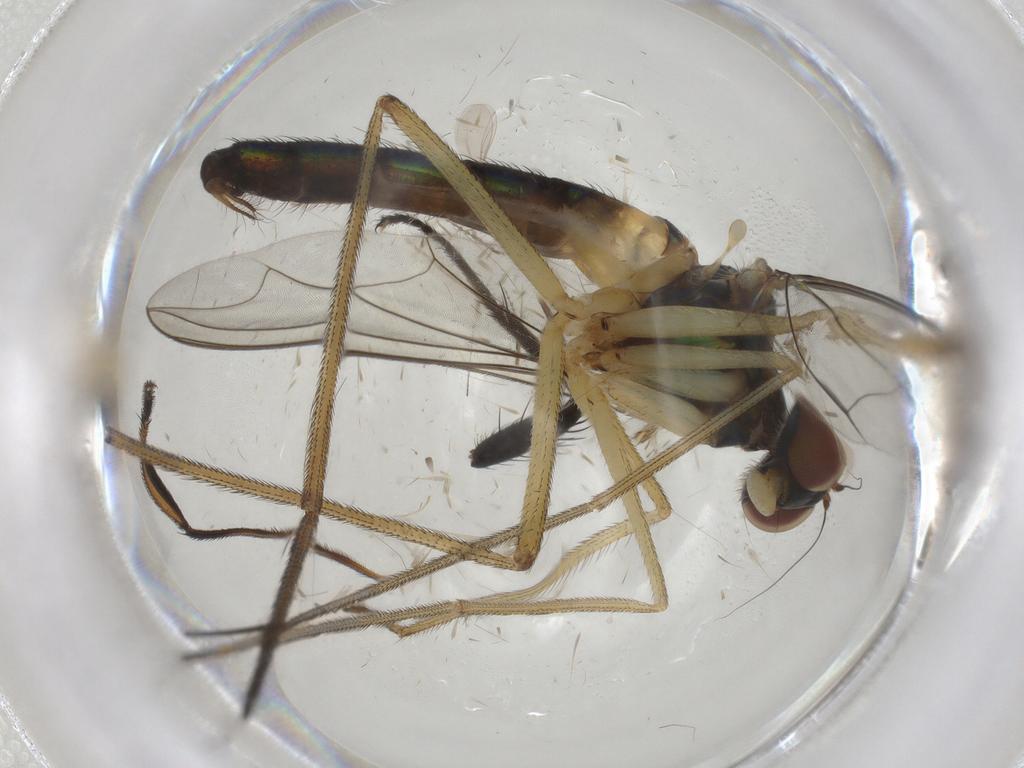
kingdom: Animalia
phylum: Arthropoda
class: Insecta
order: Diptera
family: Dolichopodidae
